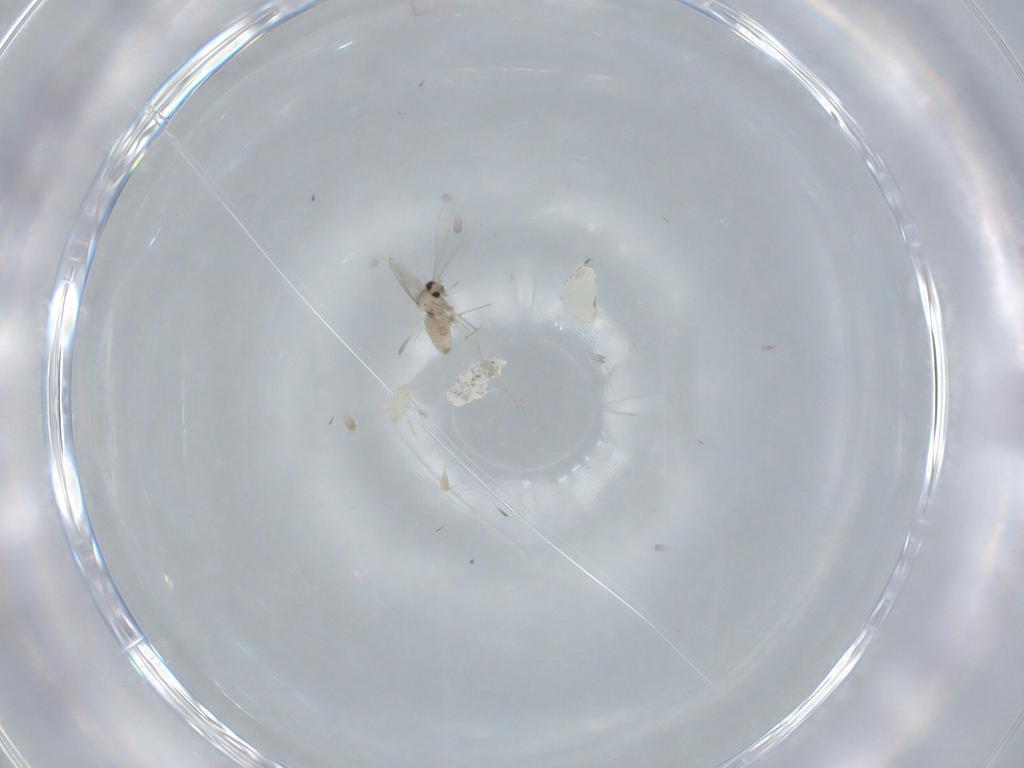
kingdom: Animalia
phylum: Arthropoda
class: Insecta
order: Diptera
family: Cecidomyiidae
